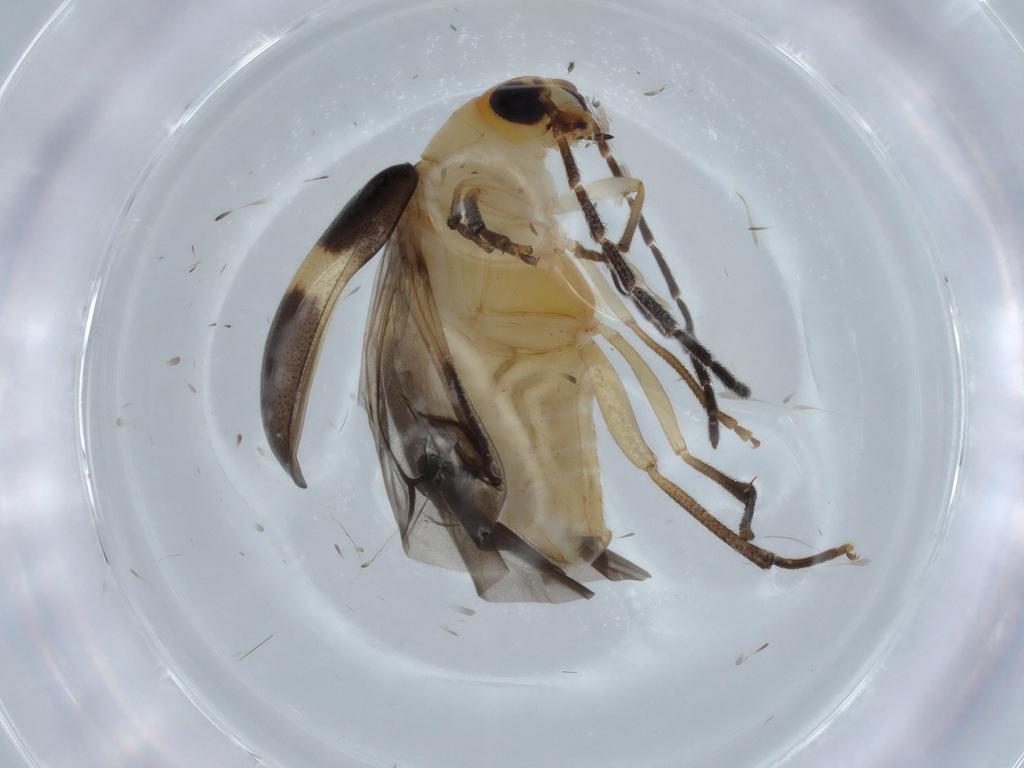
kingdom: Animalia
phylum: Arthropoda
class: Insecta
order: Coleoptera
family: Chrysomelidae
